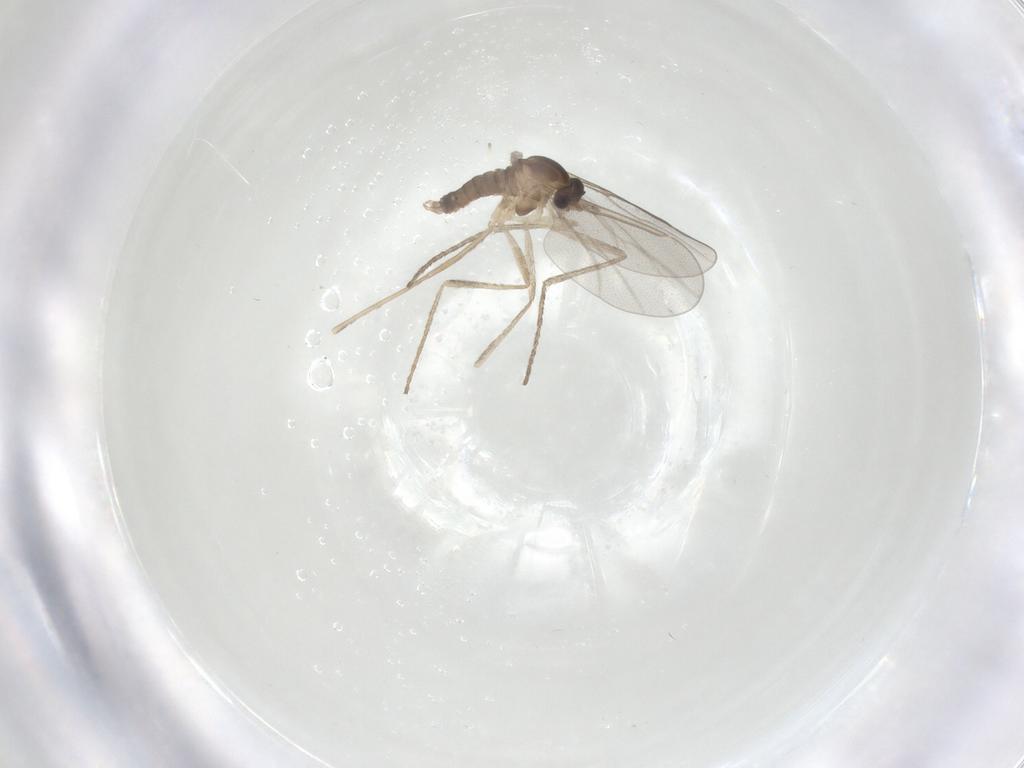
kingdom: Animalia
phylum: Arthropoda
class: Insecta
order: Diptera
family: Cecidomyiidae
